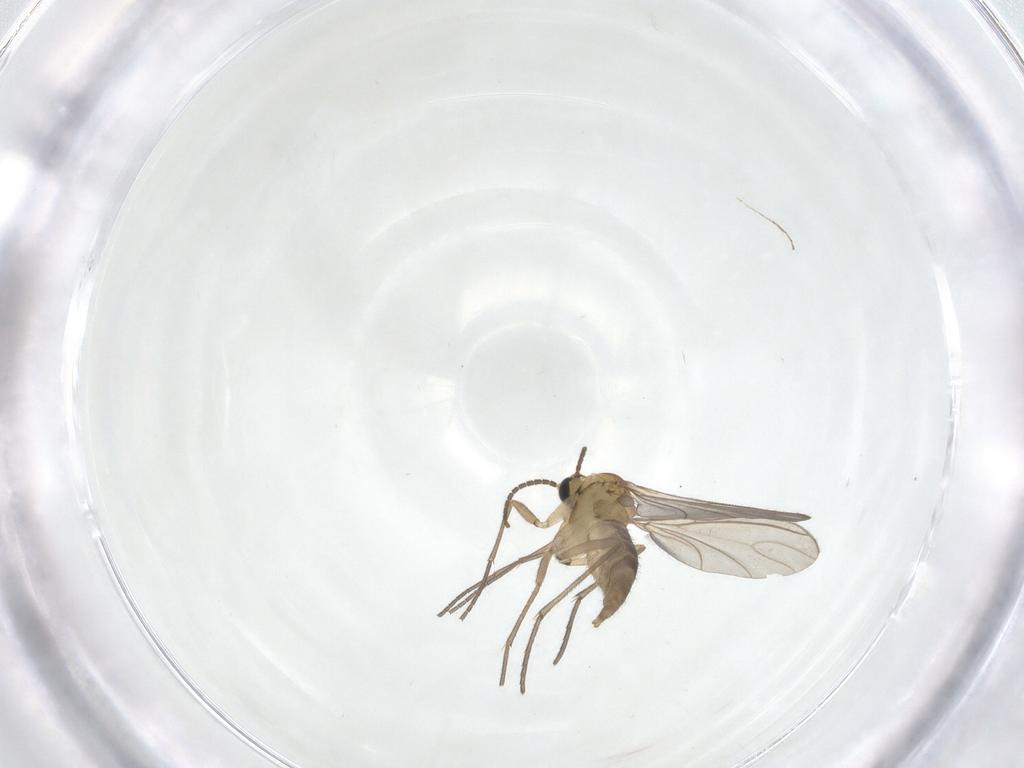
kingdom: Animalia
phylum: Arthropoda
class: Insecta
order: Diptera
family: Sciaridae
